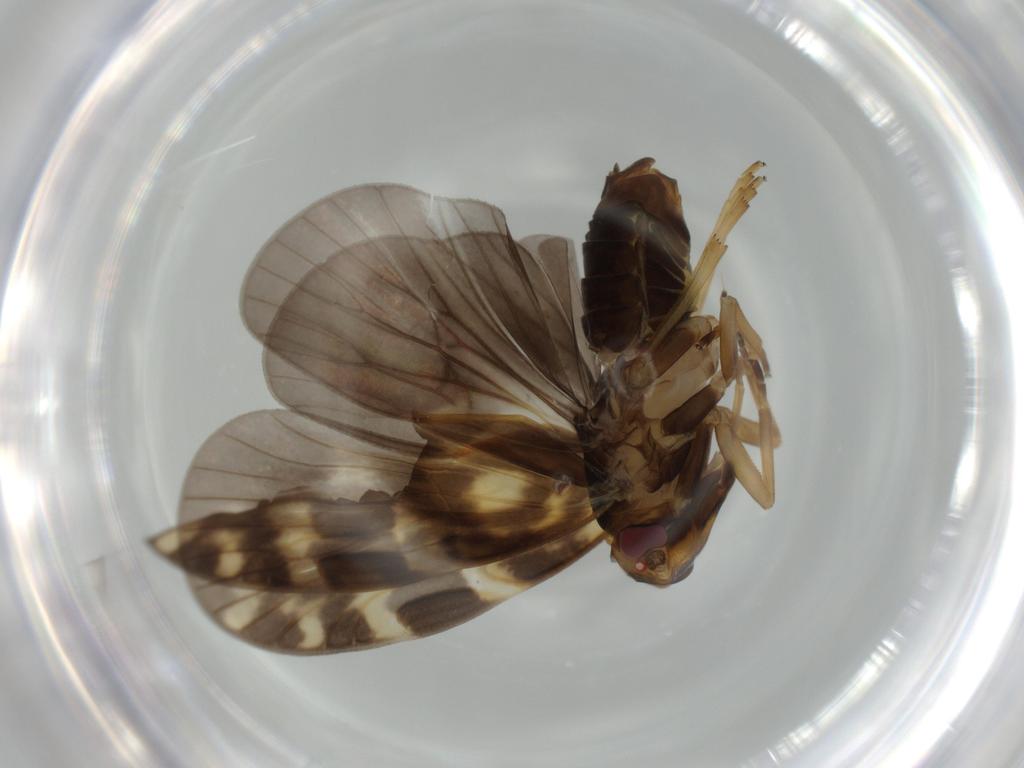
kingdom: Animalia
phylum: Arthropoda
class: Insecta
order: Hemiptera
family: Cixiidae
